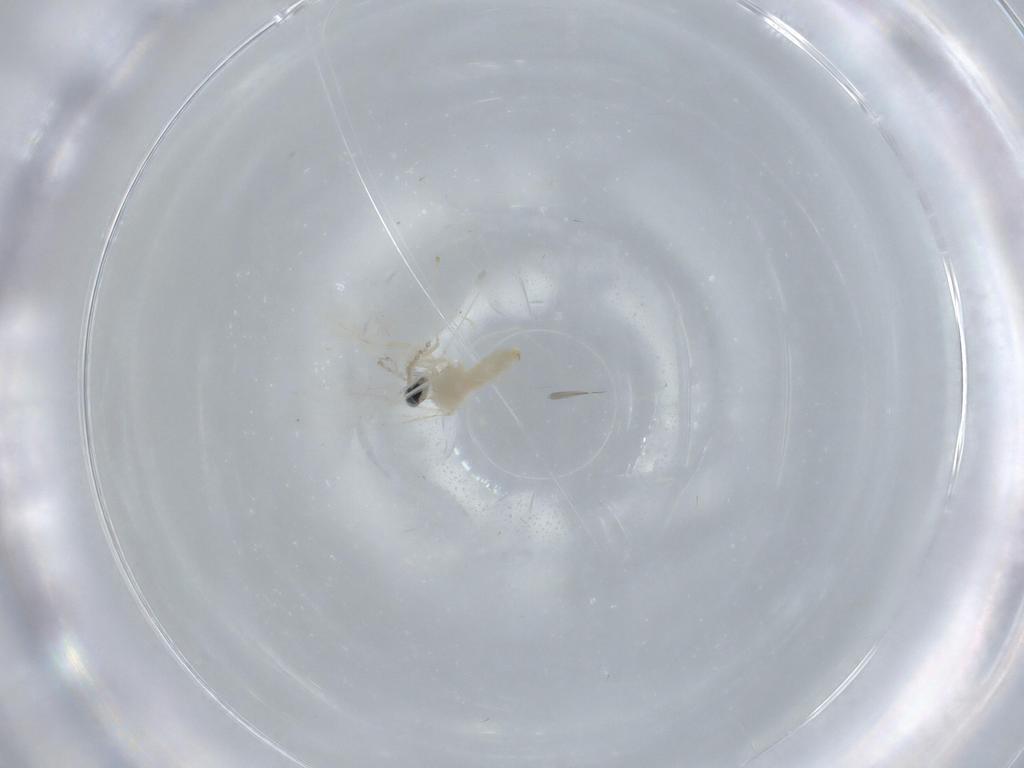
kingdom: Animalia
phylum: Arthropoda
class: Insecta
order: Diptera
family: Cecidomyiidae
